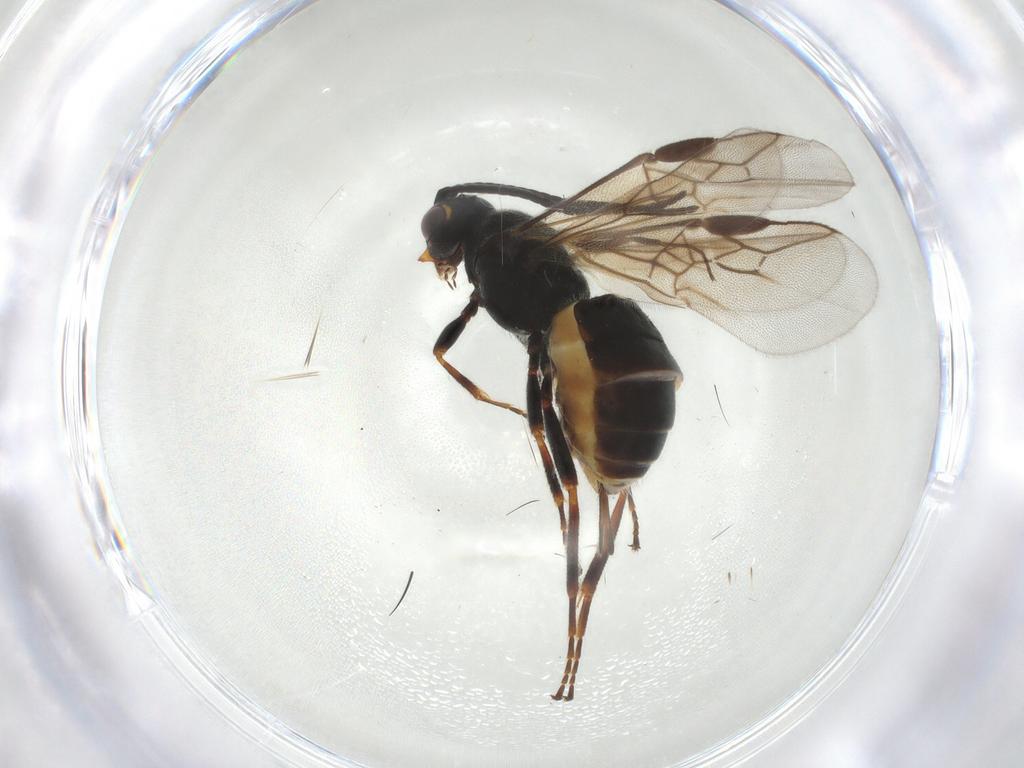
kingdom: Animalia
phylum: Arthropoda
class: Insecta
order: Hymenoptera
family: Braconidae
